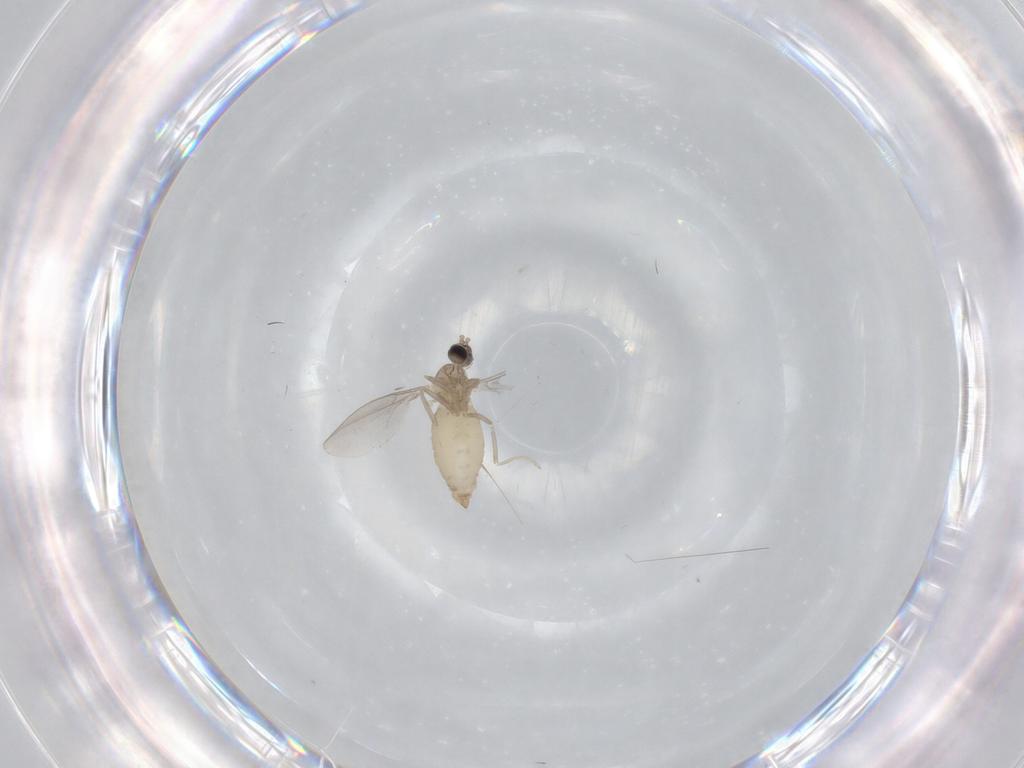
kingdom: Animalia
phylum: Arthropoda
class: Insecta
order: Diptera
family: Cecidomyiidae
